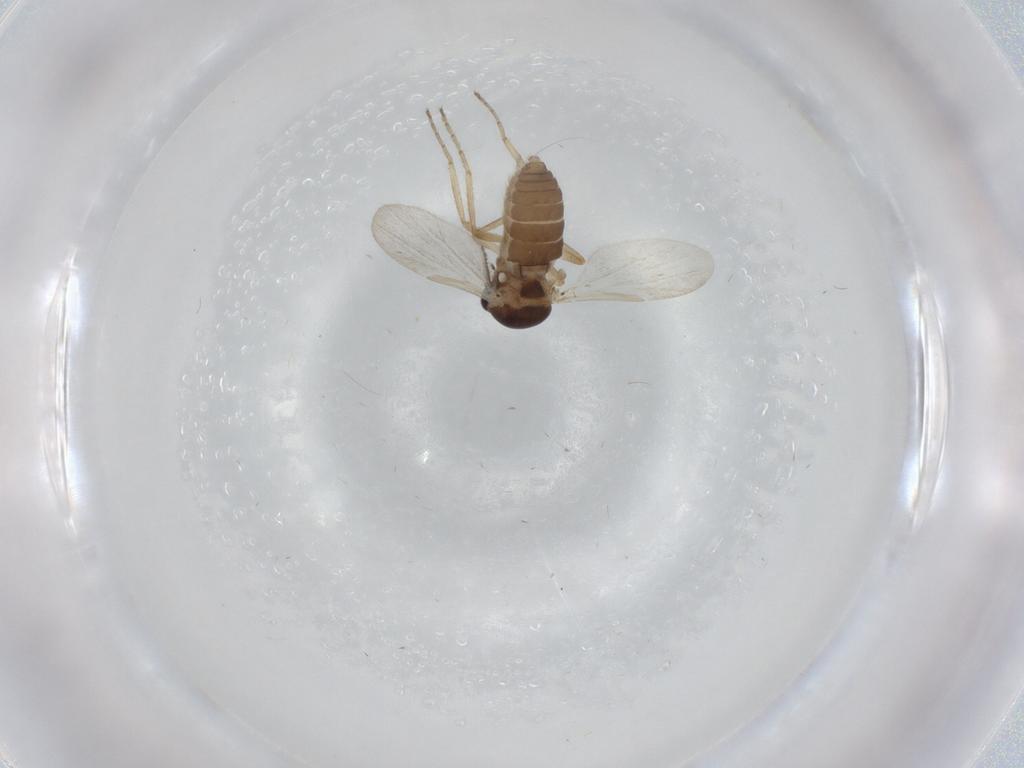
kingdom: Animalia
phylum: Arthropoda
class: Insecta
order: Diptera
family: Ceratopogonidae
